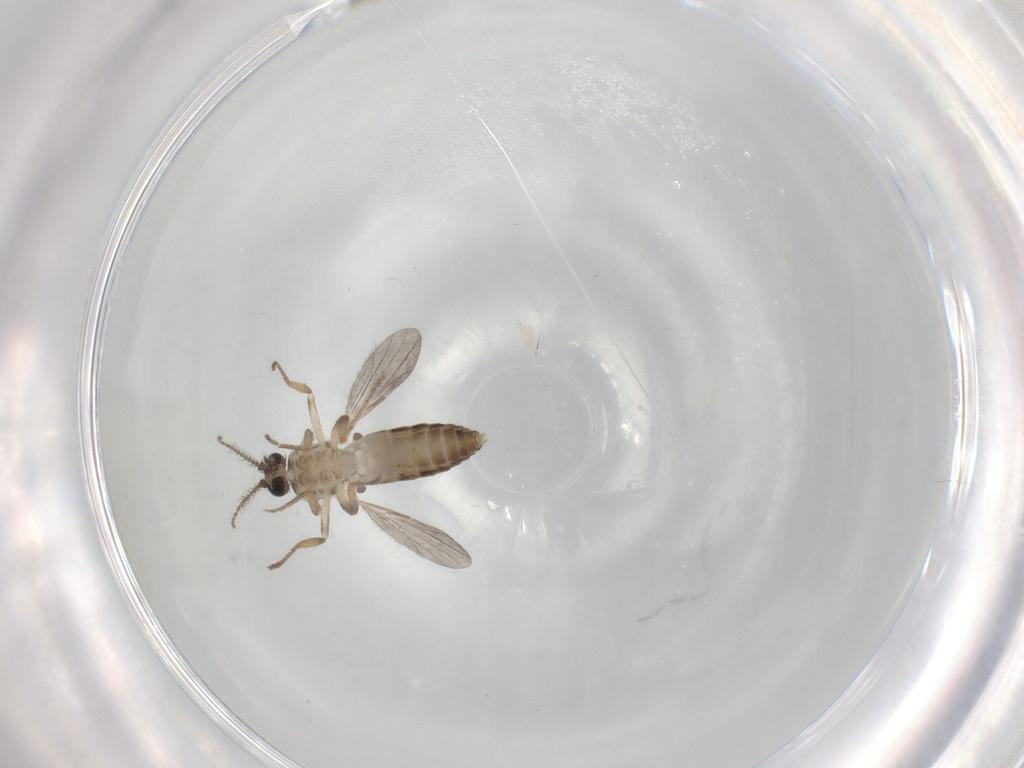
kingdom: Animalia
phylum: Arthropoda
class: Insecta
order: Diptera
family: Ceratopogonidae
